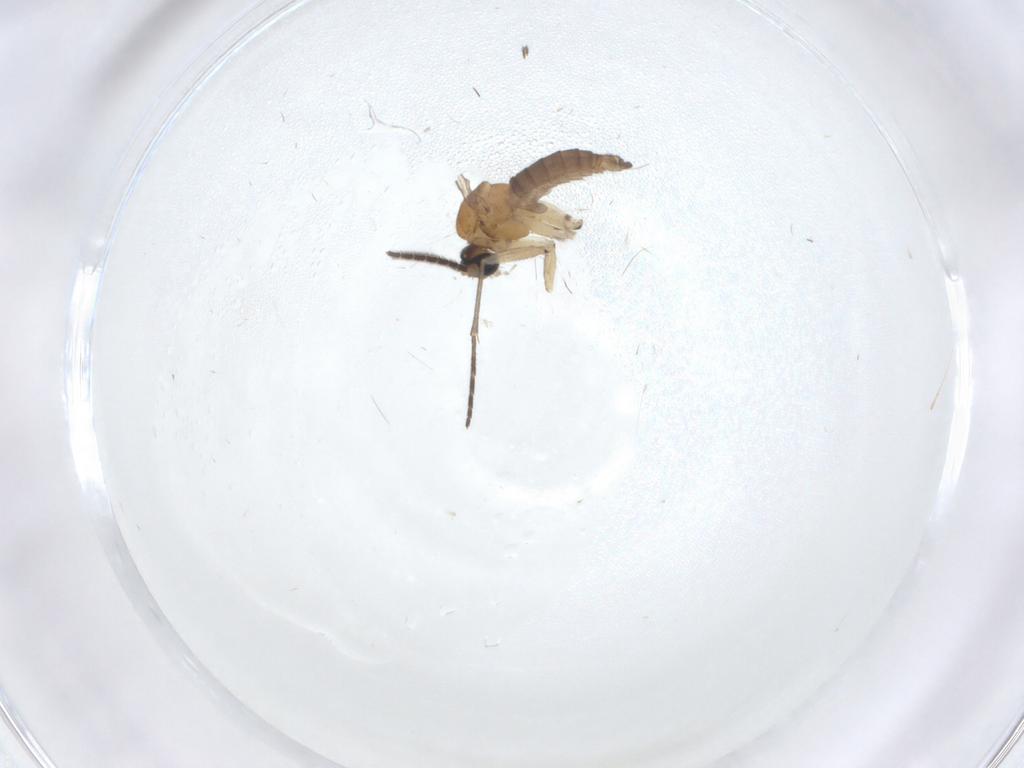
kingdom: Animalia
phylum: Arthropoda
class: Insecta
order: Diptera
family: Sciaridae
